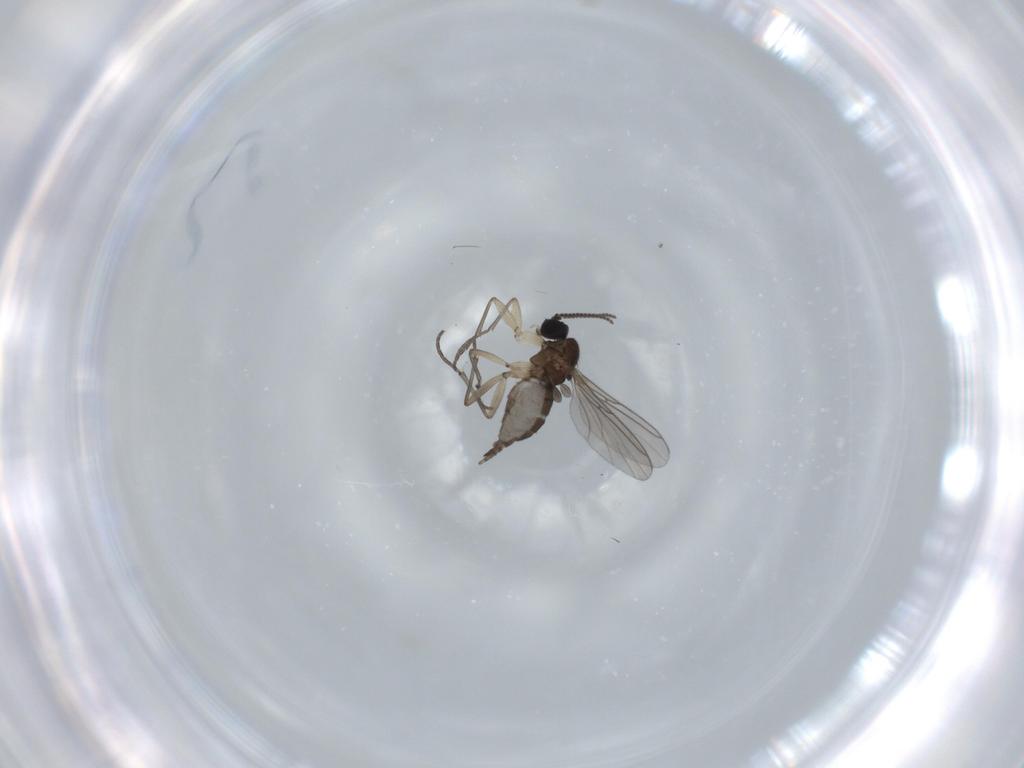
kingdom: Animalia
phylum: Arthropoda
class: Insecta
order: Diptera
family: Sciaridae
